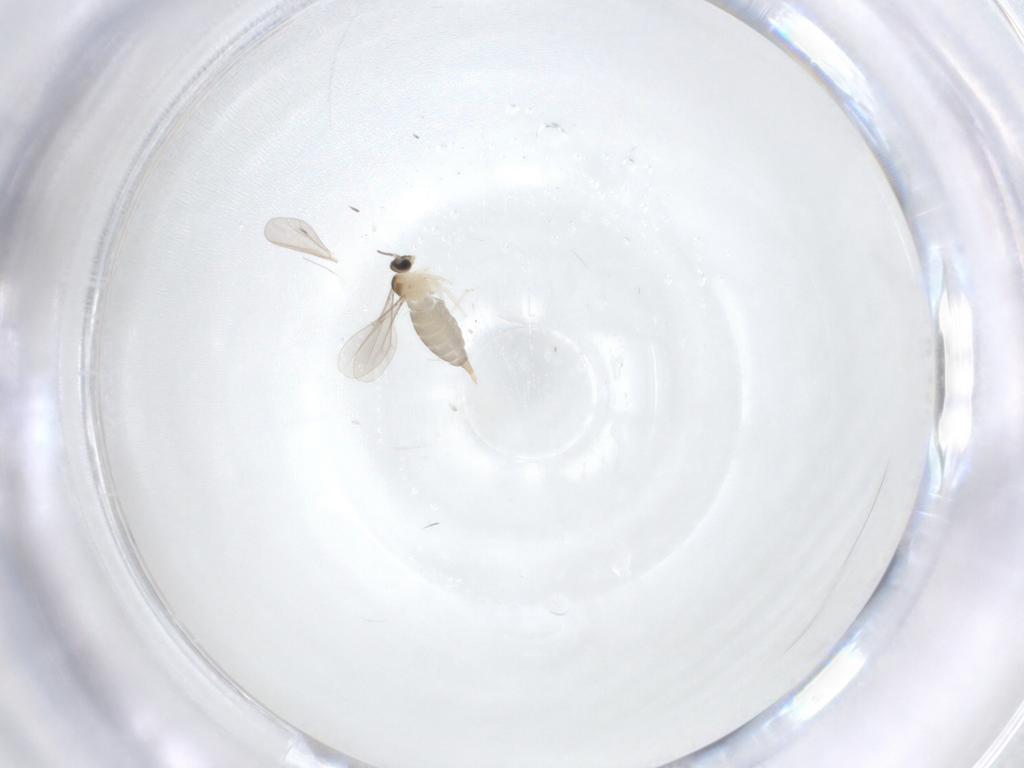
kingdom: Animalia
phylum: Arthropoda
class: Insecta
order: Diptera
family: Cecidomyiidae
